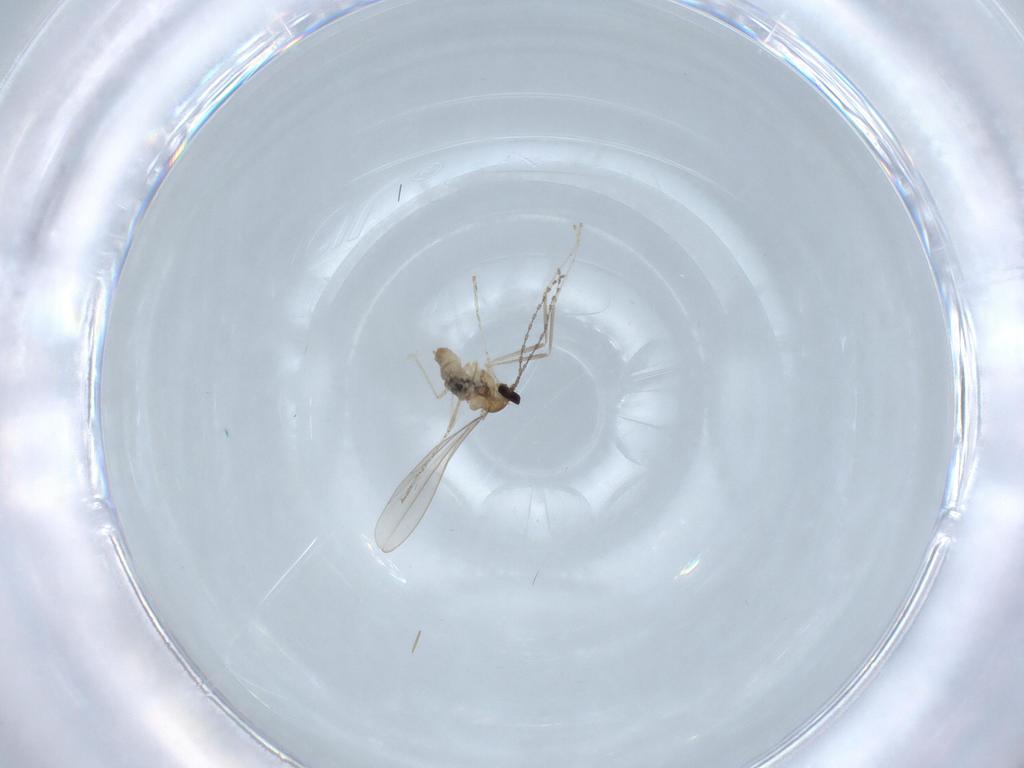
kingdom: Animalia
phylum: Arthropoda
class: Insecta
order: Diptera
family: Cecidomyiidae
